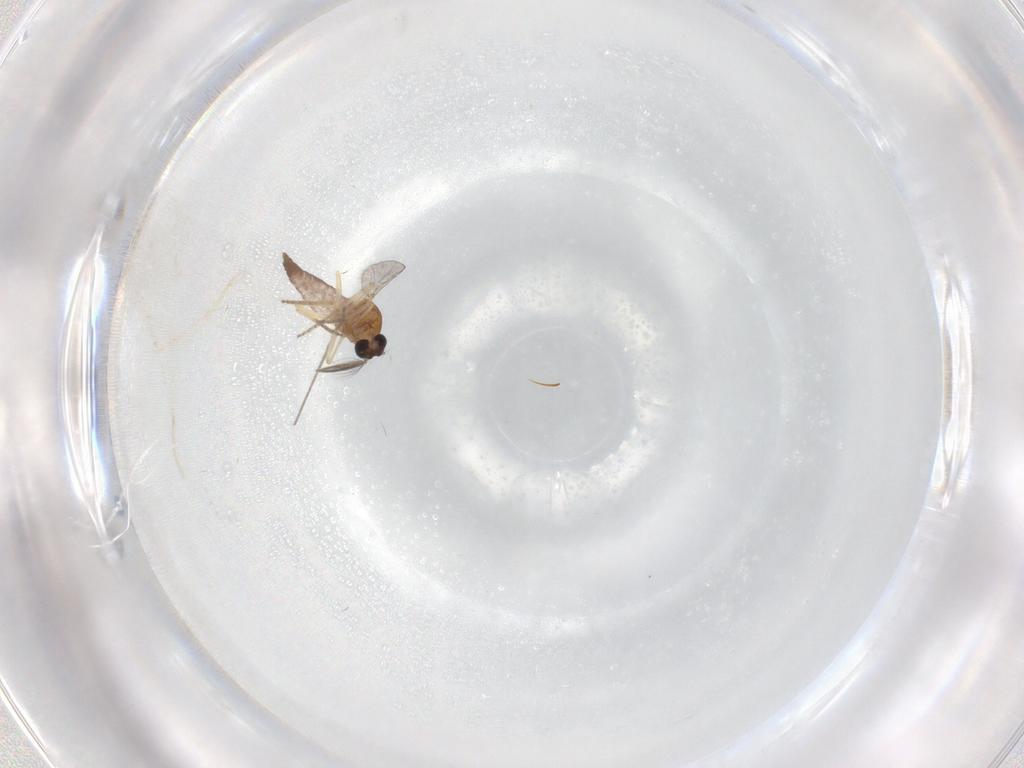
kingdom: Animalia
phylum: Arthropoda
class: Insecta
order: Diptera
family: Ceratopogonidae
